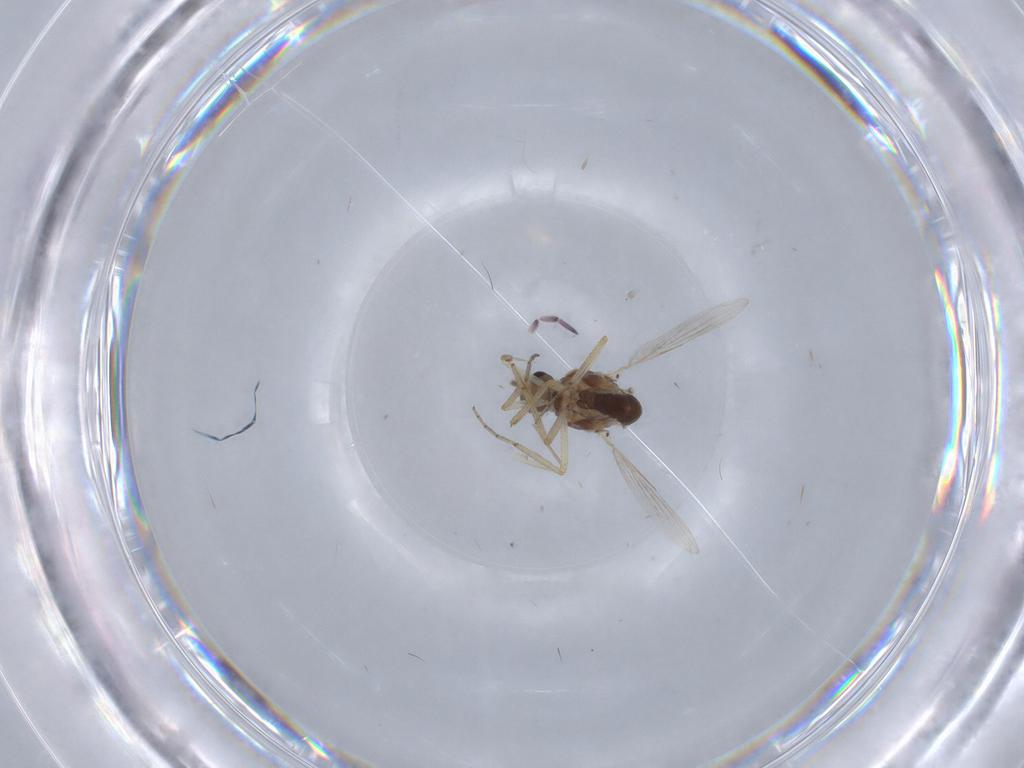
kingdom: Animalia
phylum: Arthropoda
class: Insecta
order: Diptera
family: Ceratopogonidae
